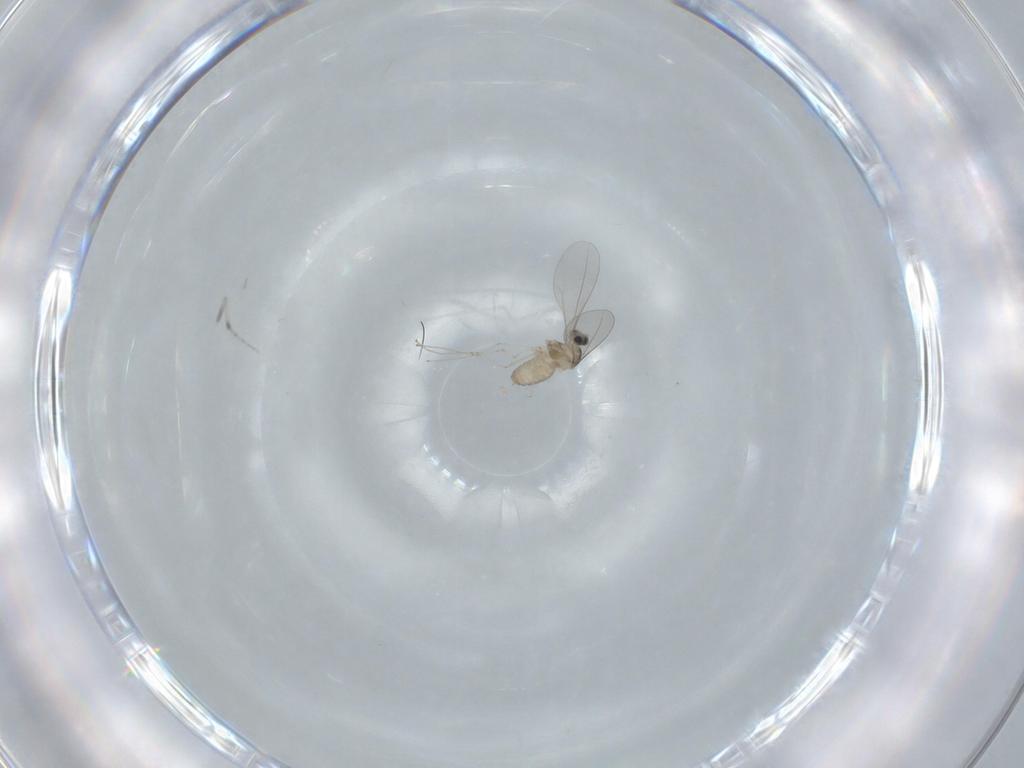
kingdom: Animalia
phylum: Arthropoda
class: Insecta
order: Diptera
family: Cecidomyiidae
